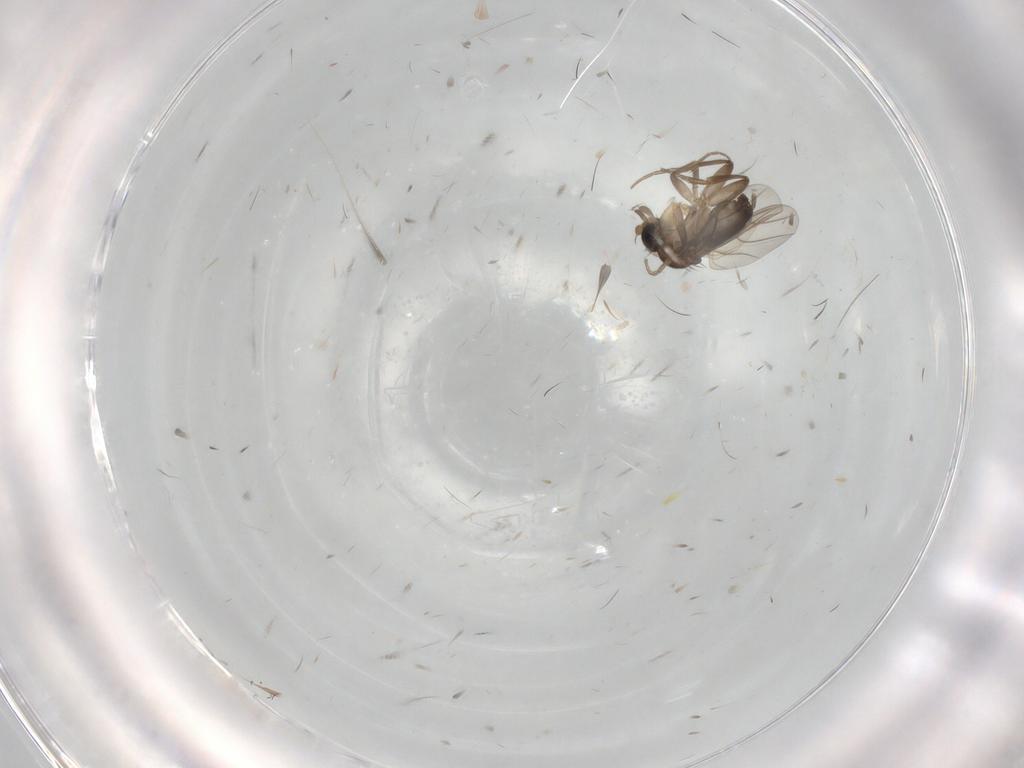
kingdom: Animalia
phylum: Arthropoda
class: Insecta
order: Diptera
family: Phoridae
